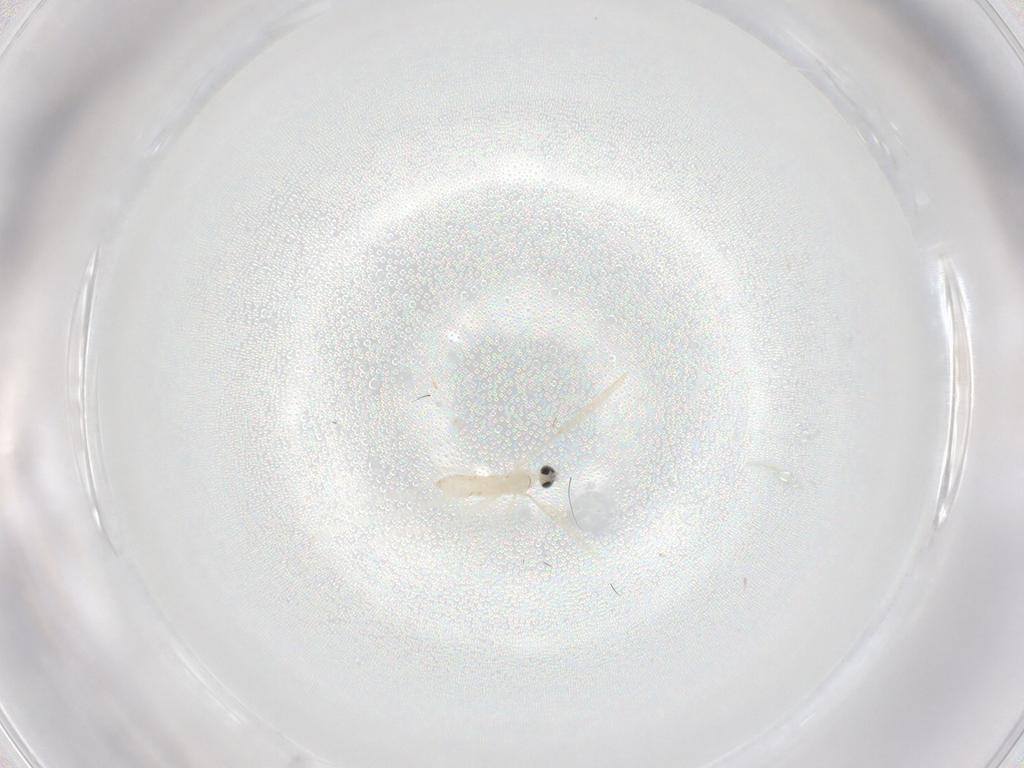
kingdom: Animalia
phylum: Arthropoda
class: Insecta
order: Diptera
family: Cecidomyiidae
